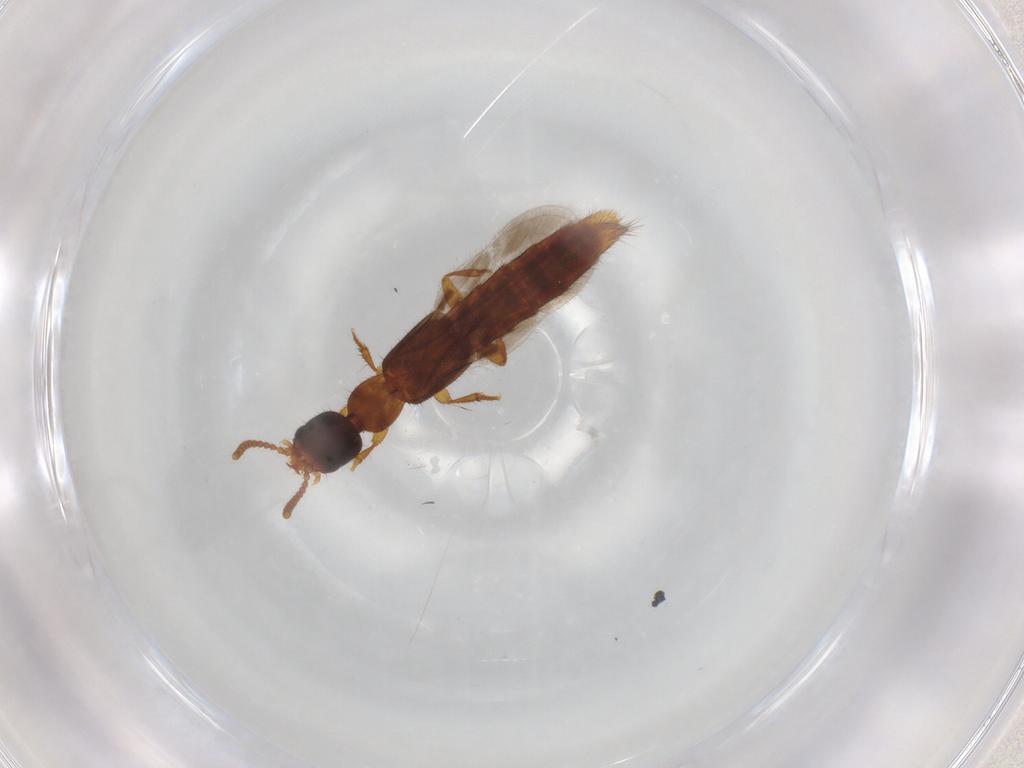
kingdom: Animalia
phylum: Arthropoda
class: Insecta
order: Coleoptera
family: Staphylinidae
